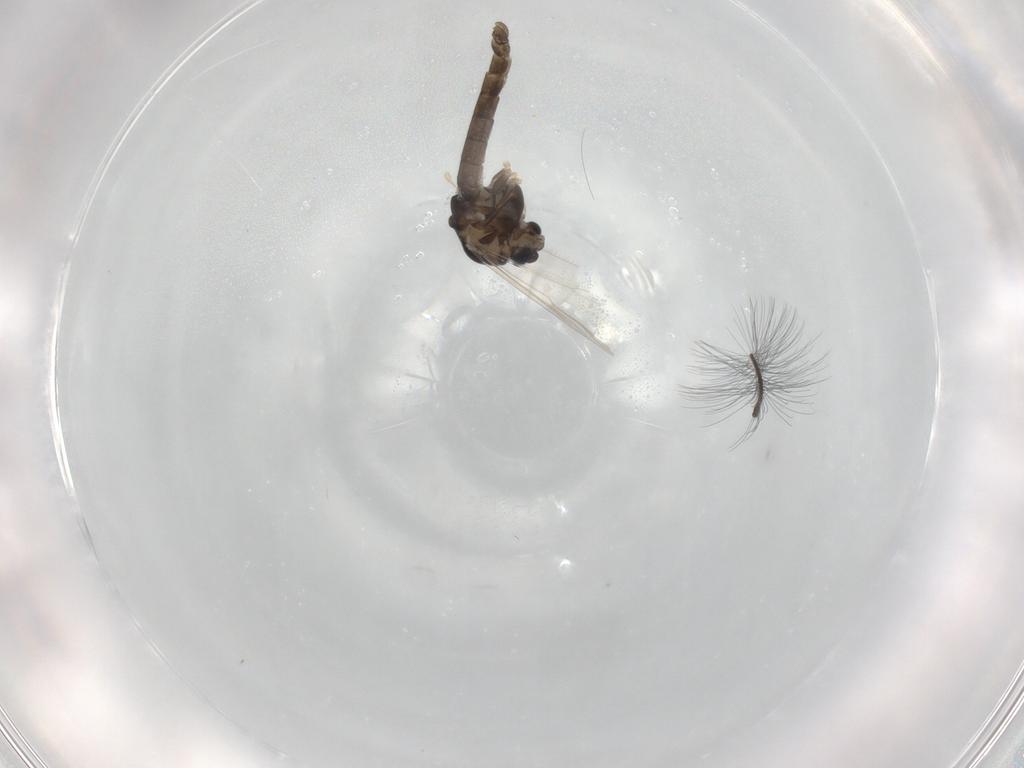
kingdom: Animalia
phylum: Arthropoda
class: Insecta
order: Diptera
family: Chironomidae
